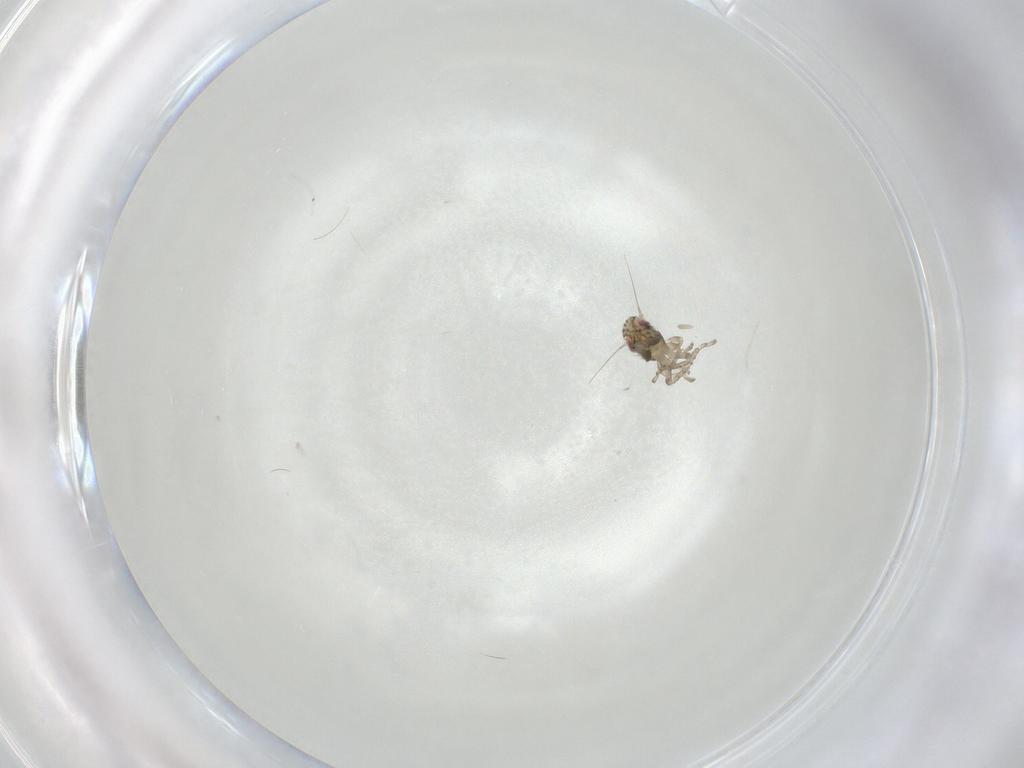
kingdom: Animalia
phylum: Arthropoda
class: Insecta
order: Hemiptera
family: Cicadellidae
